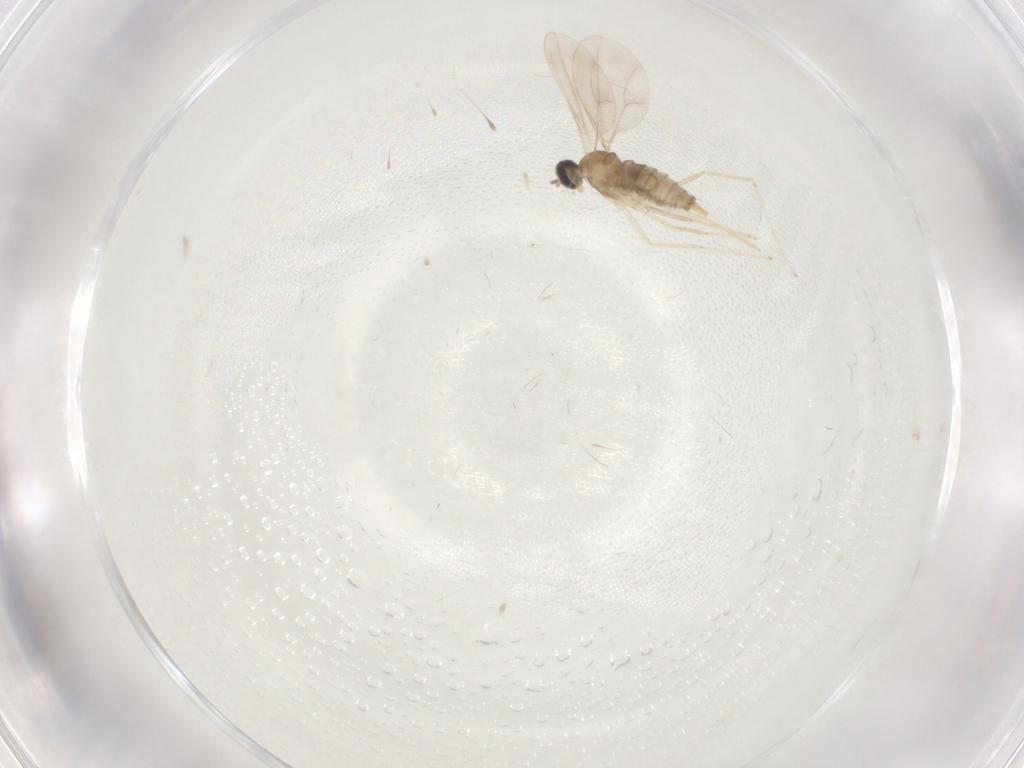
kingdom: Animalia
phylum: Arthropoda
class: Insecta
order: Diptera
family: Cecidomyiidae
